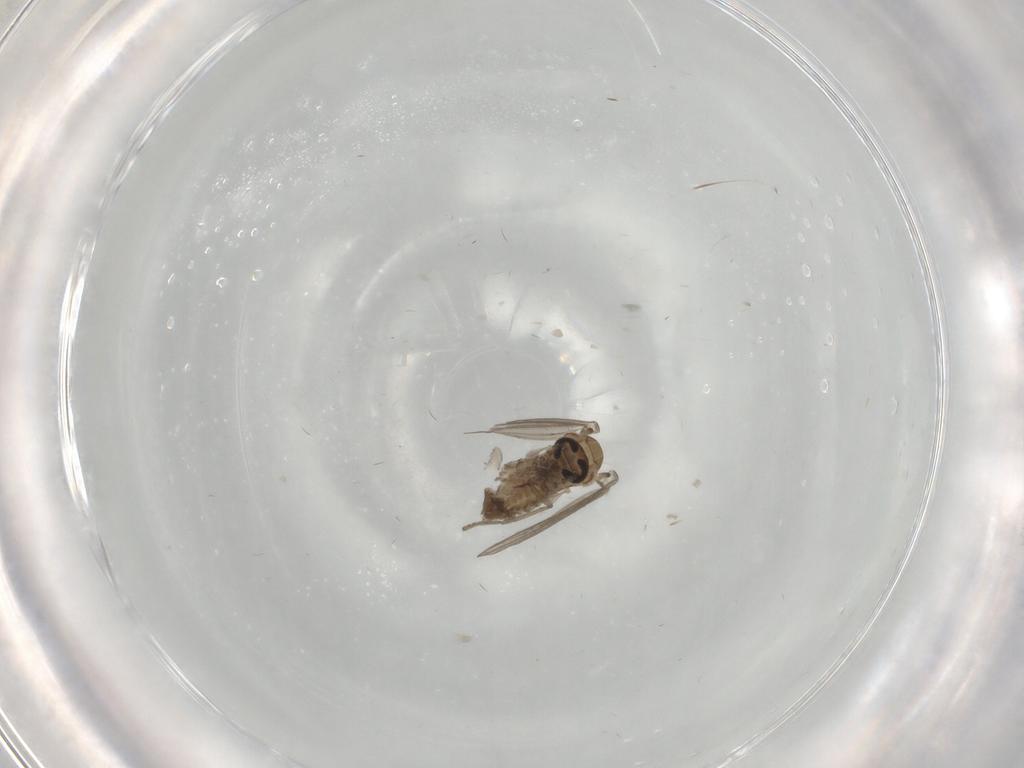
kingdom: Animalia
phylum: Arthropoda
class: Insecta
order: Diptera
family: Psychodidae
